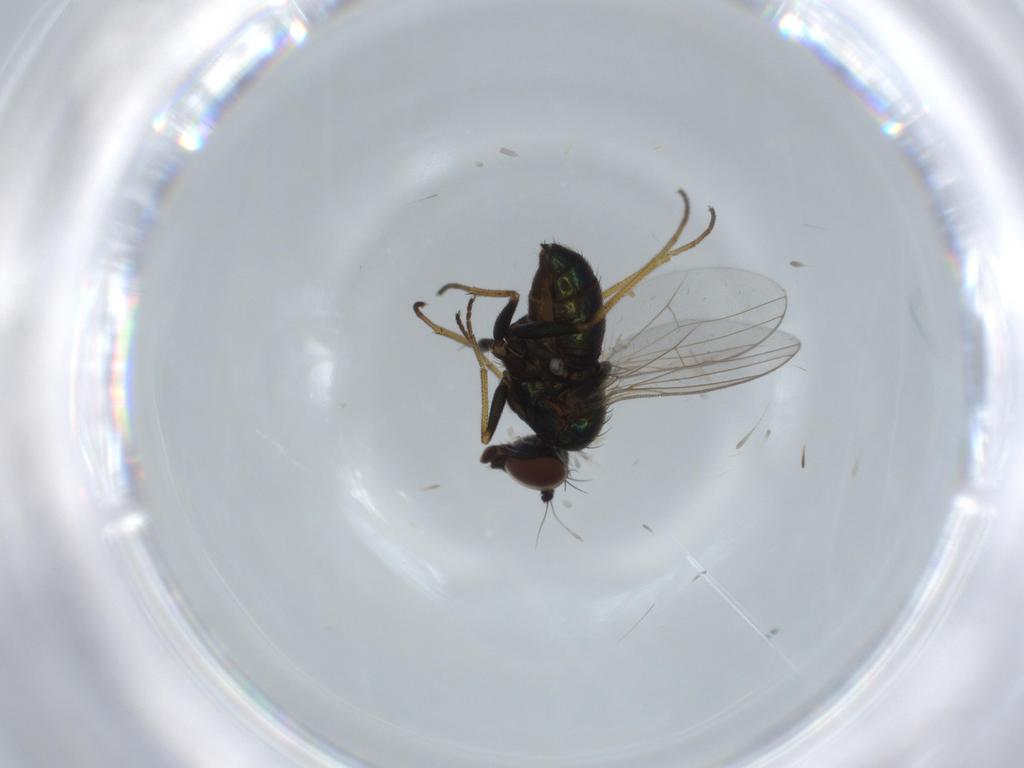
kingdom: Animalia
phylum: Arthropoda
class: Insecta
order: Diptera
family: Dolichopodidae
